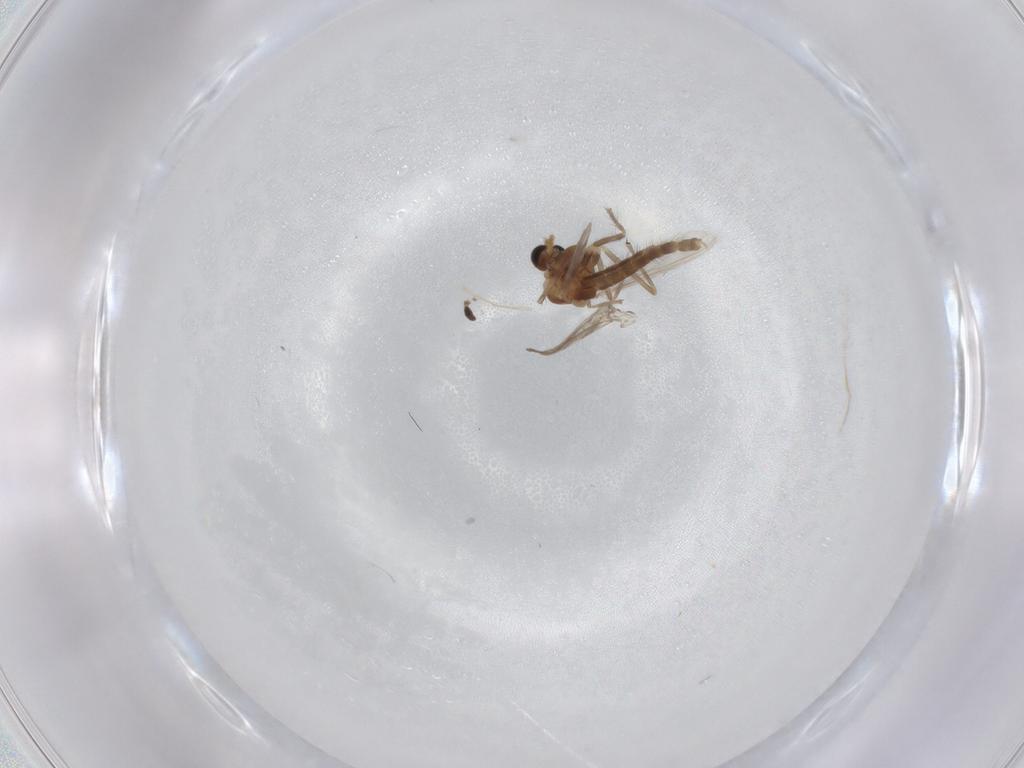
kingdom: Animalia
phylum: Arthropoda
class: Insecta
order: Diptera
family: Chironomidae
